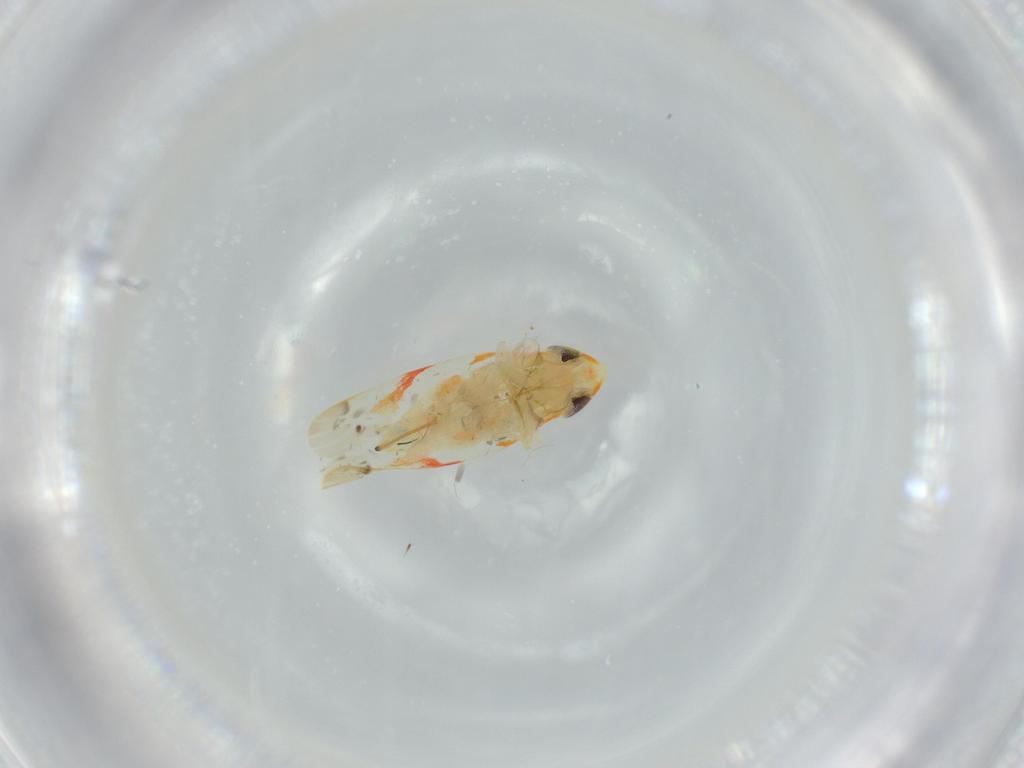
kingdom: Animalia
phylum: Arthropoda
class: Insecta
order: Hemiptera
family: Cicadellidae
